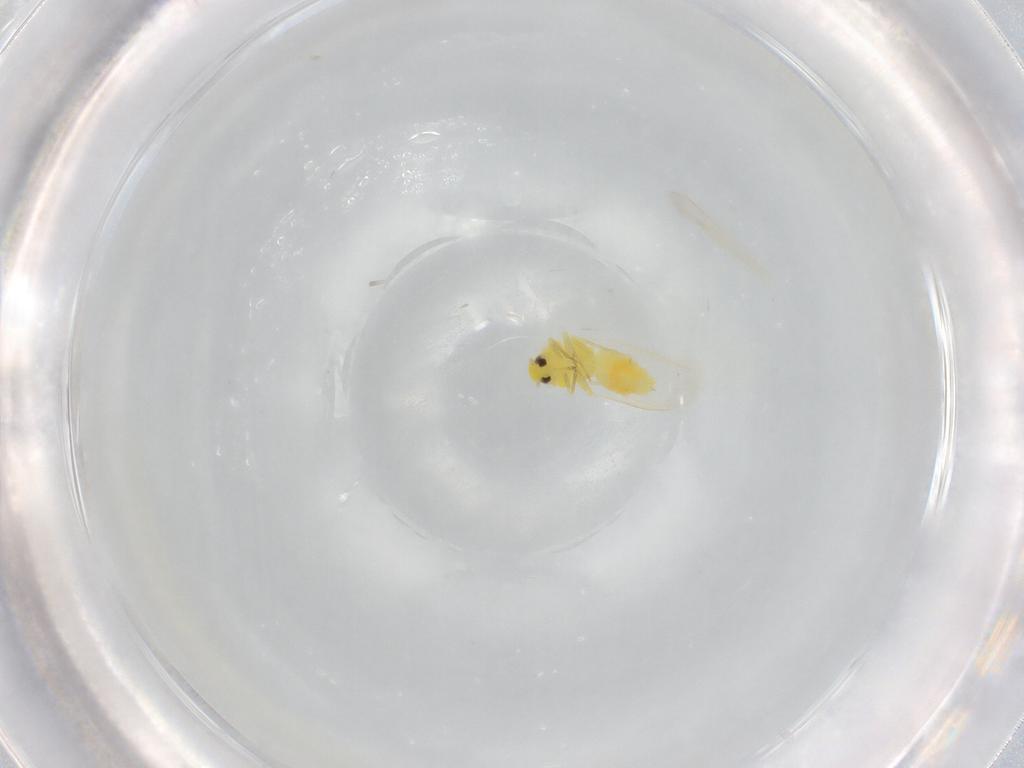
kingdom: Animalia
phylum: Arthropoda
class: Insecta
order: Hemiptera
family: Aleyrodidae
